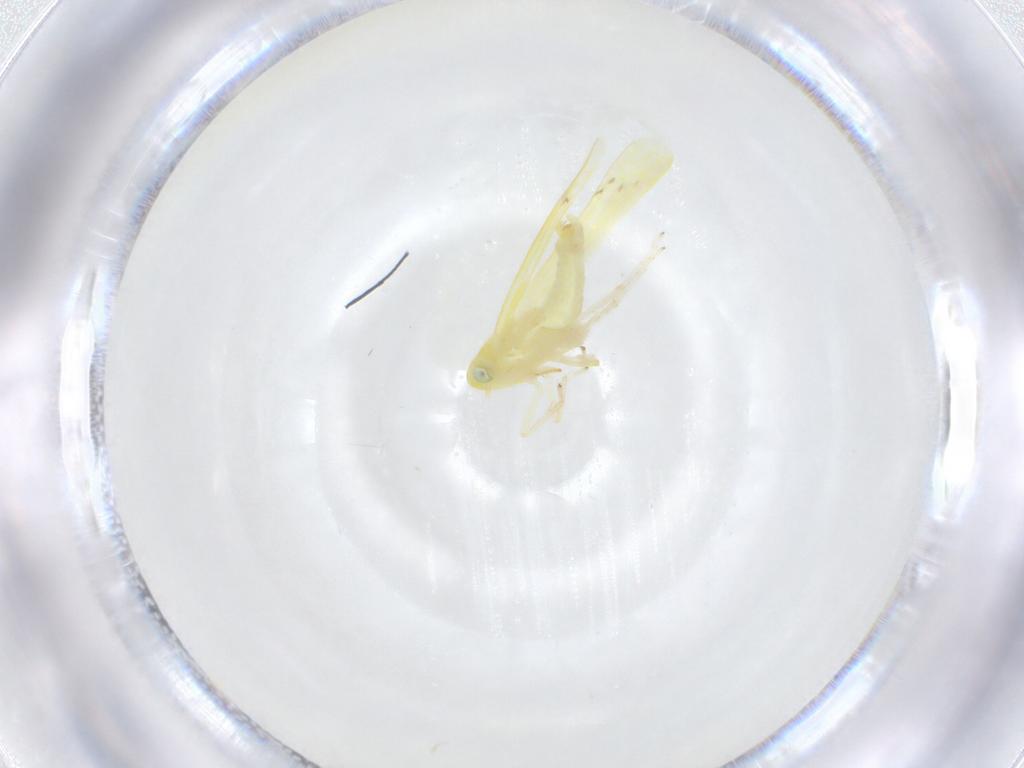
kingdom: Animalia
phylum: Arthropoda
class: Insecta
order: Hemiptera
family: Cicadellidae
